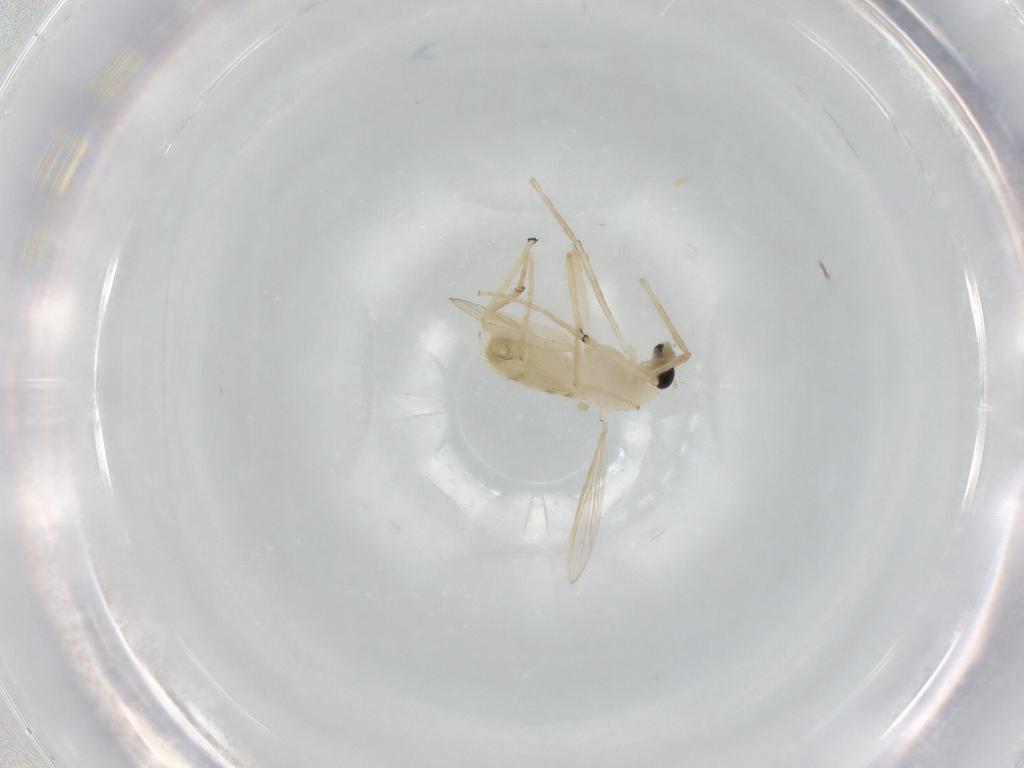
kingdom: Animalia
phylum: Arthropoda
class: Insecta
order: Diptera
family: Chironomidae
